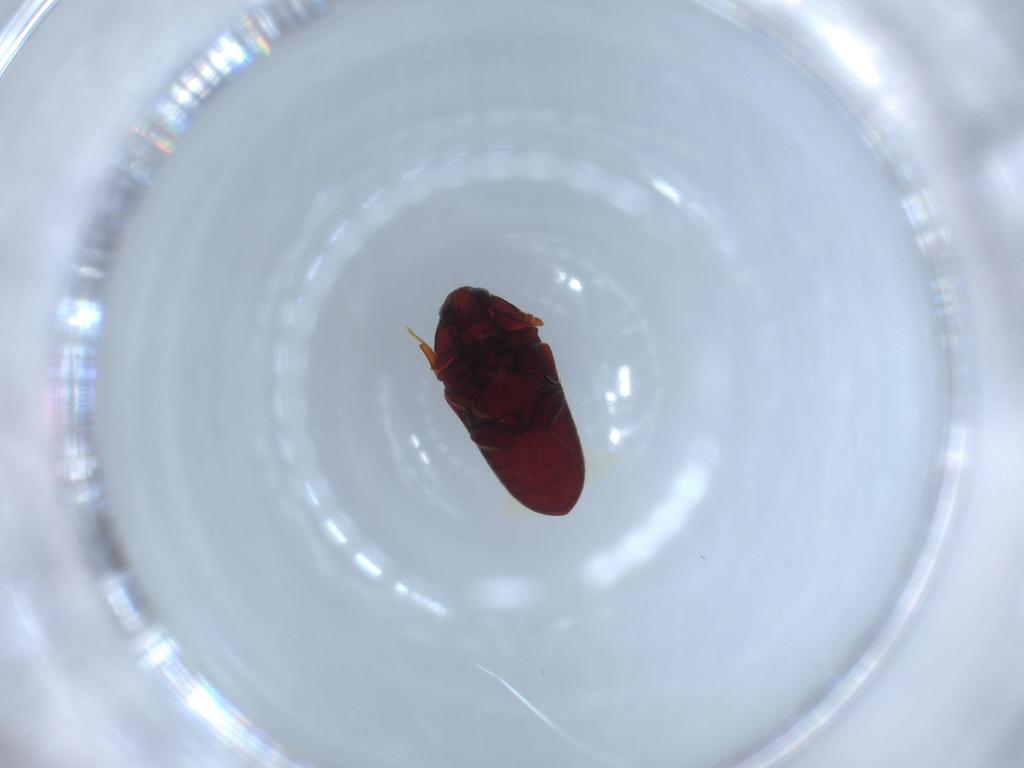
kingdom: Animalia
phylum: Arthropoda
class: Insecta
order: Coleoptera
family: Throscidae
